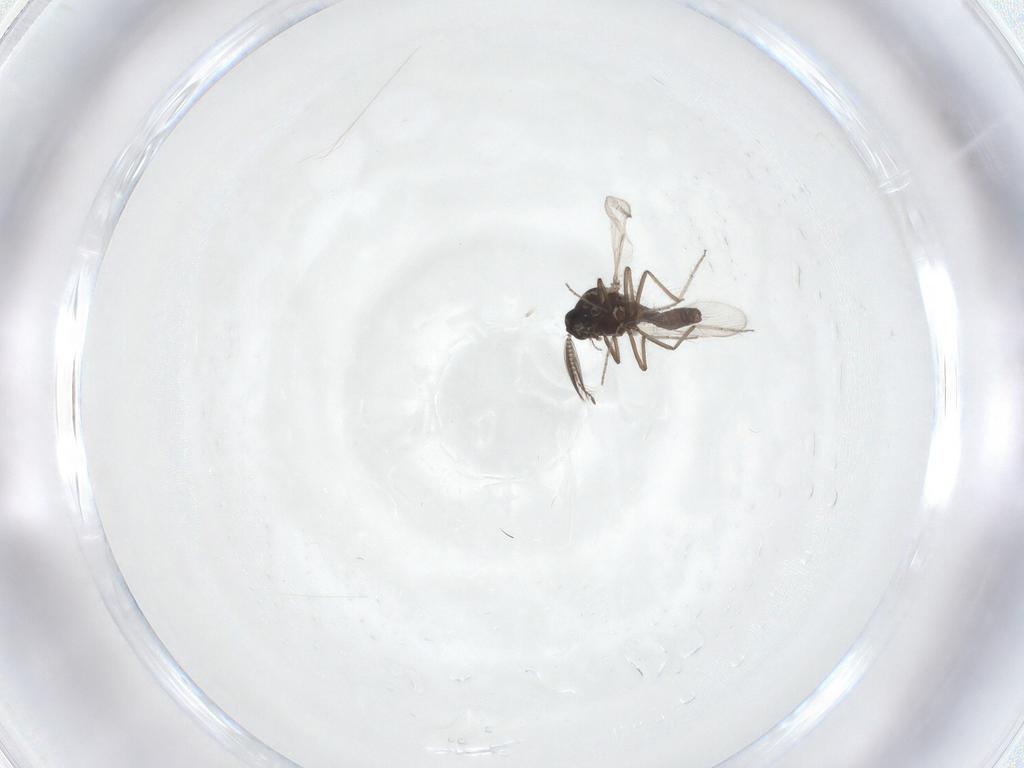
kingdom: Animalia
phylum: Arthropoda
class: Insecta
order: Diptera
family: Ceratopogonidae
